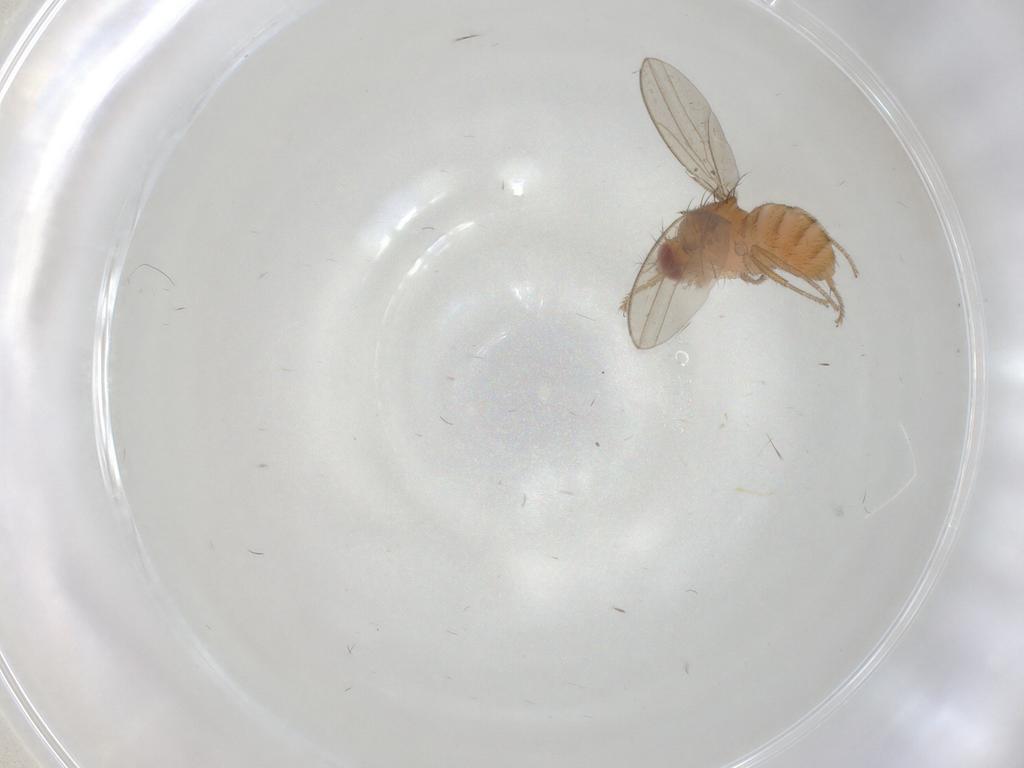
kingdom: Animalia
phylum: Arthropoda
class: Insecta
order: Diptera
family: Drosophilidae
